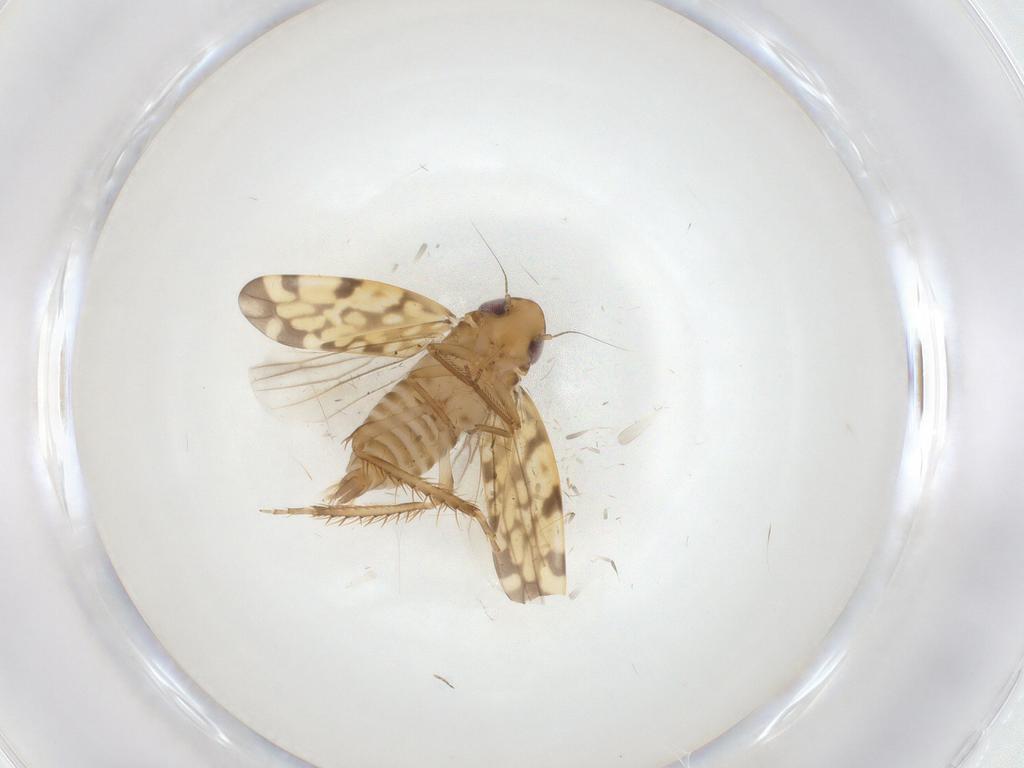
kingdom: Animalia
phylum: Arthropoda
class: Insecta
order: Hemiptera
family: Cicadellidae
